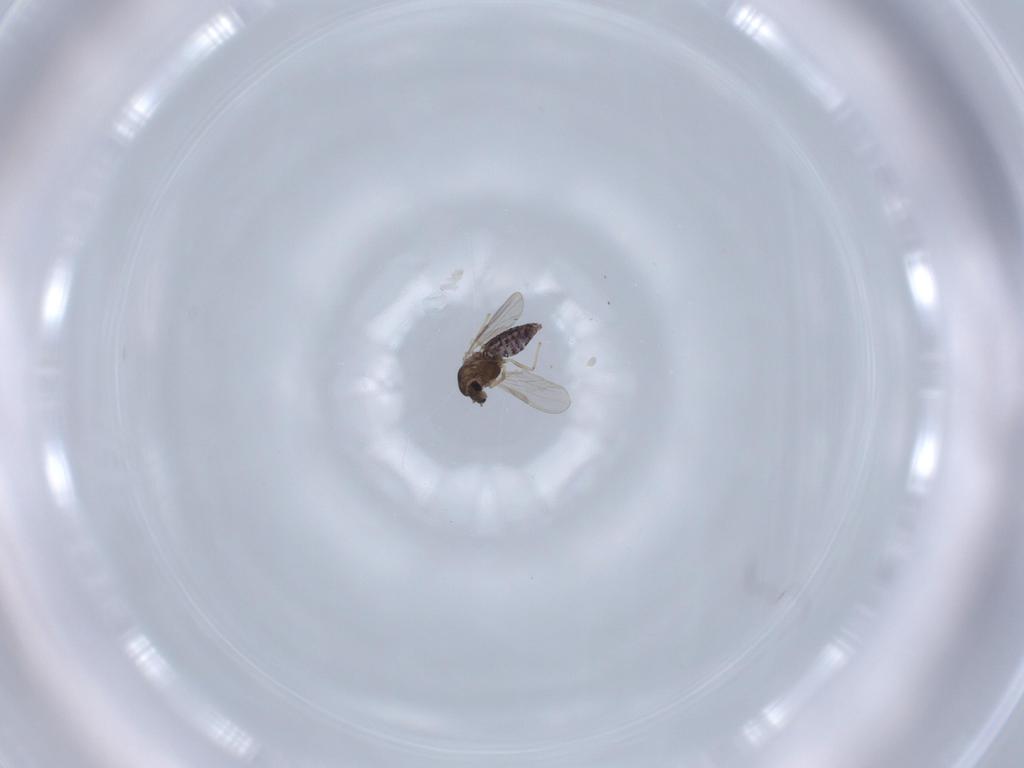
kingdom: Animalia
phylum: Arthropoda
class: Insecta
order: Diptera
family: Chironomidae
